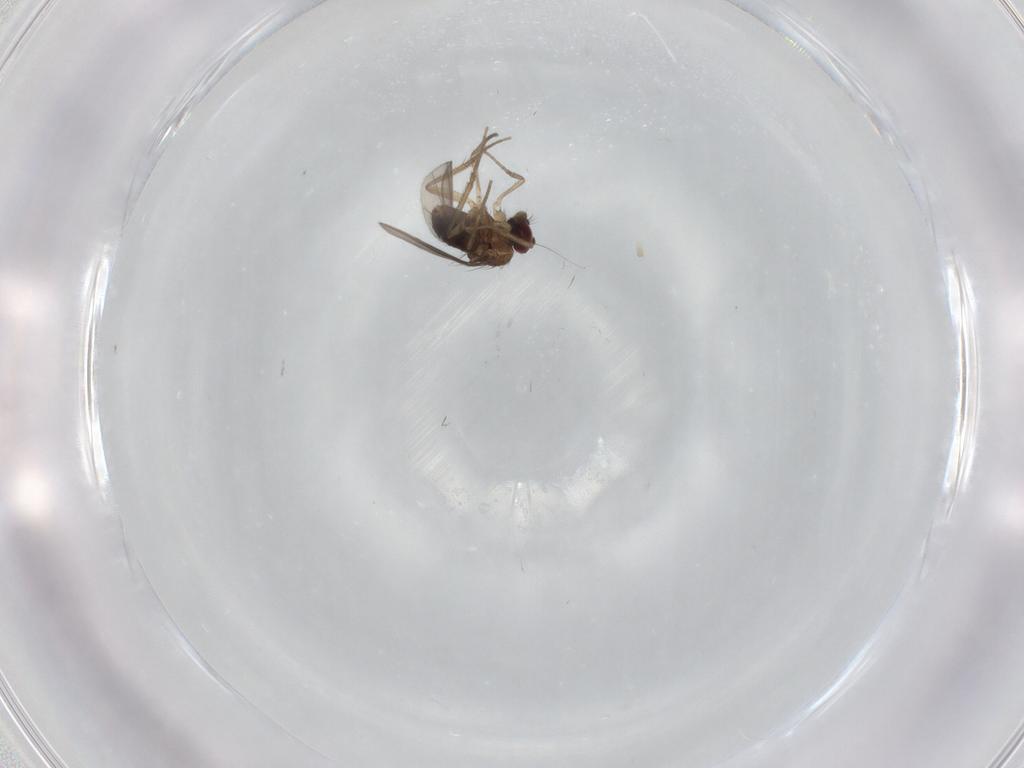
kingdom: Animalia
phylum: Arthropoda
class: Insecta
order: Diptera
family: Dolichopodidae
